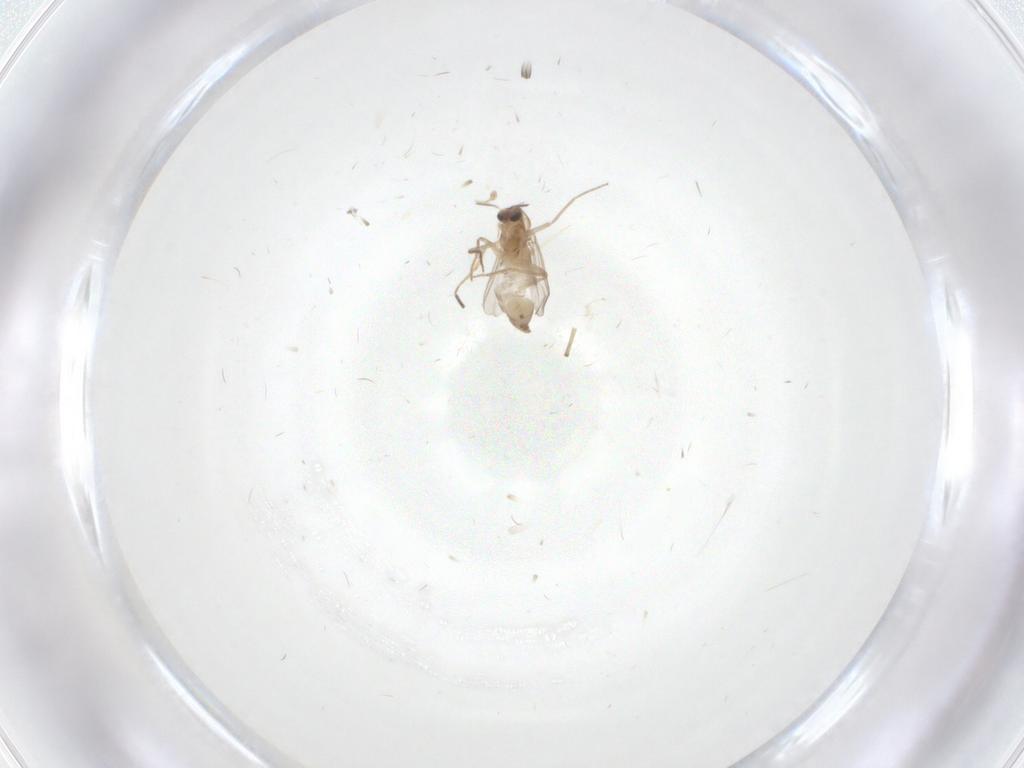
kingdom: Animalia
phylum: Arthropoda
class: Insecta
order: Diptera
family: Chironomidae
